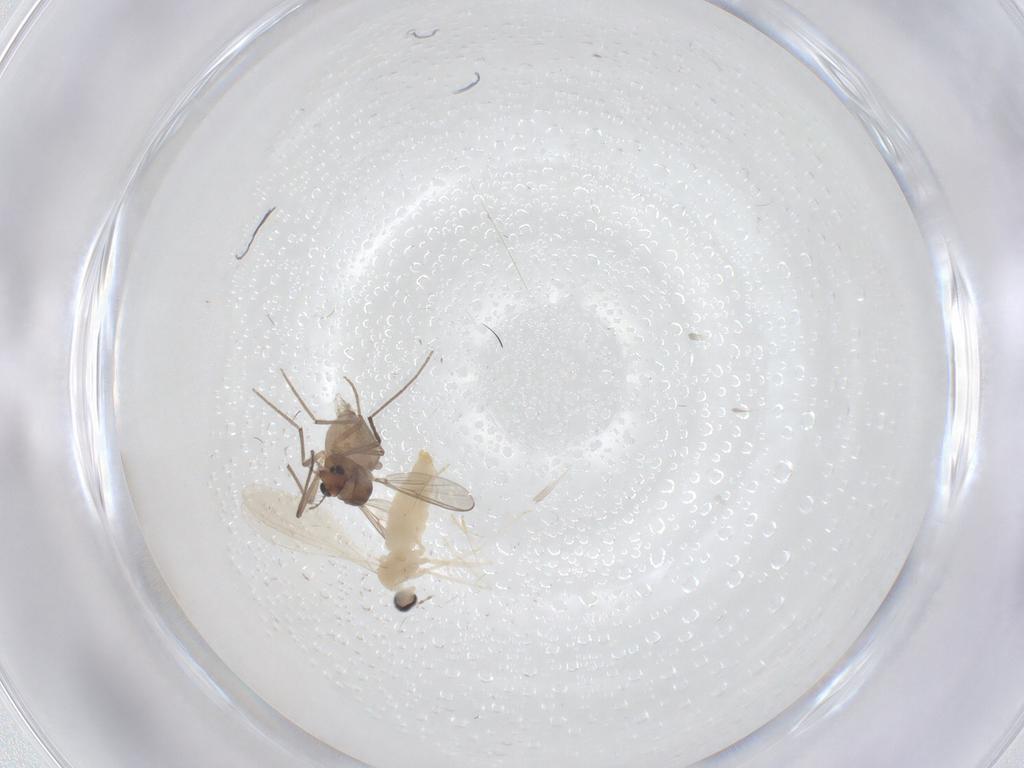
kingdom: Animalia
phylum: Arthropoda
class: Insecta
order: Diptera
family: Cecidomyiidae
